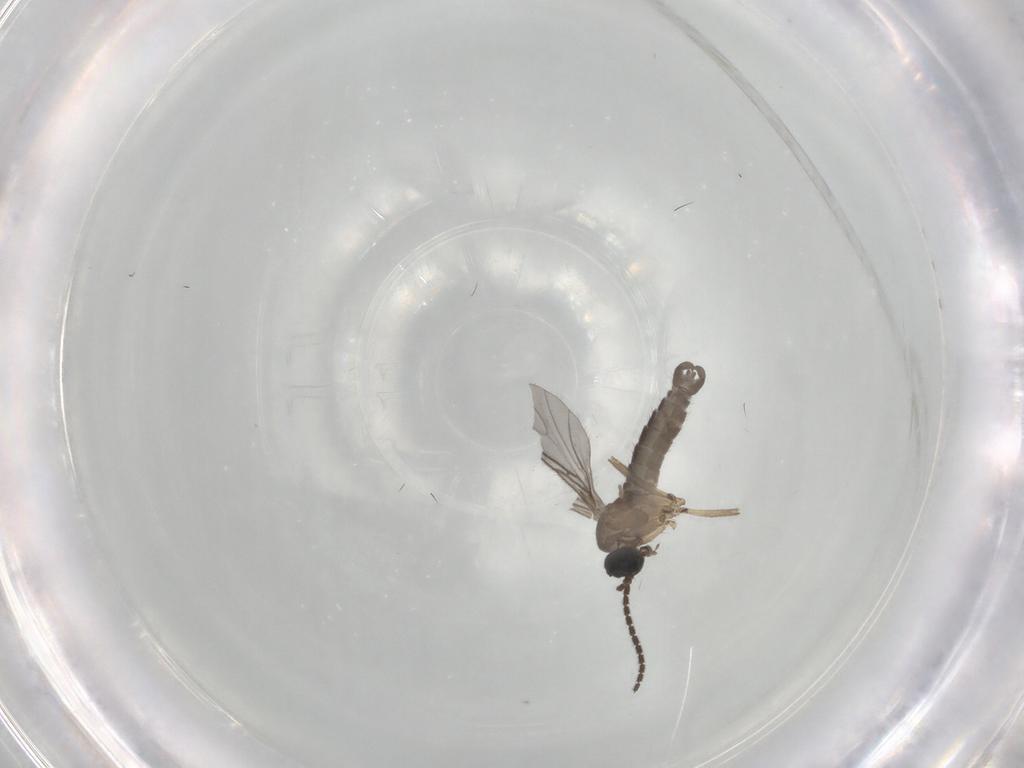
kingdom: Animalia
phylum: Arthropoda
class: Insecta
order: Diptera
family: Sciaridae
